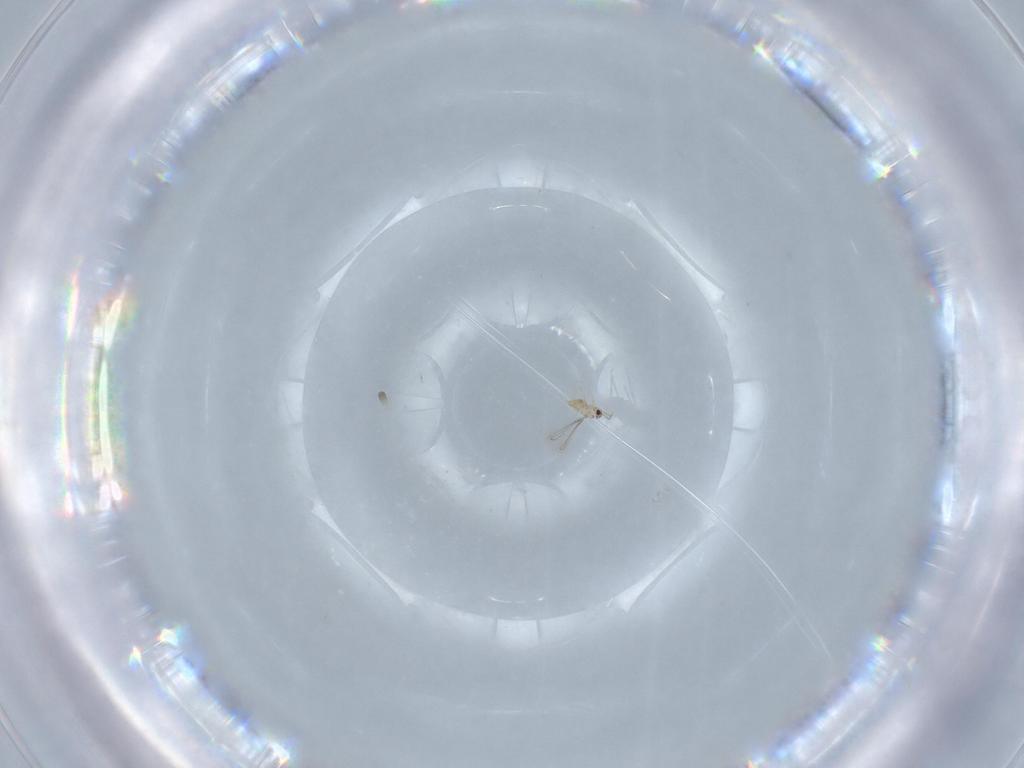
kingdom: Animalia
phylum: Arthropoda
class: Insecta
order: Hymenoptera
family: Mymaridae
